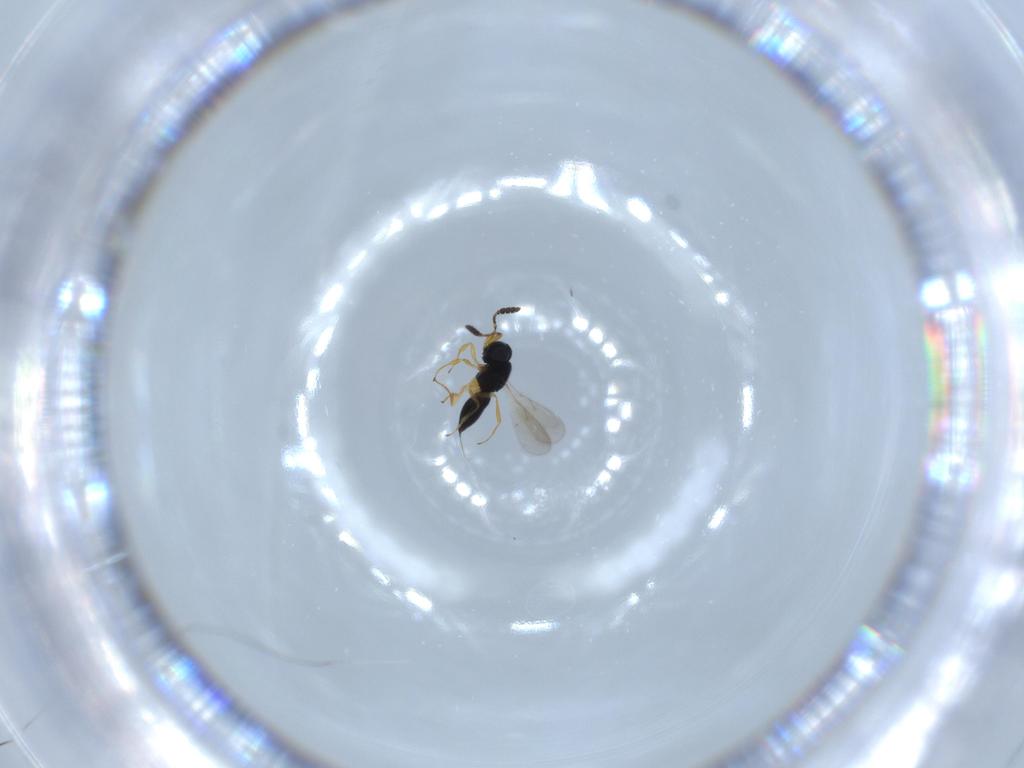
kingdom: Animalia
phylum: Arthropoda
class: Insecta
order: Hymenoptera
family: Scelionidae
